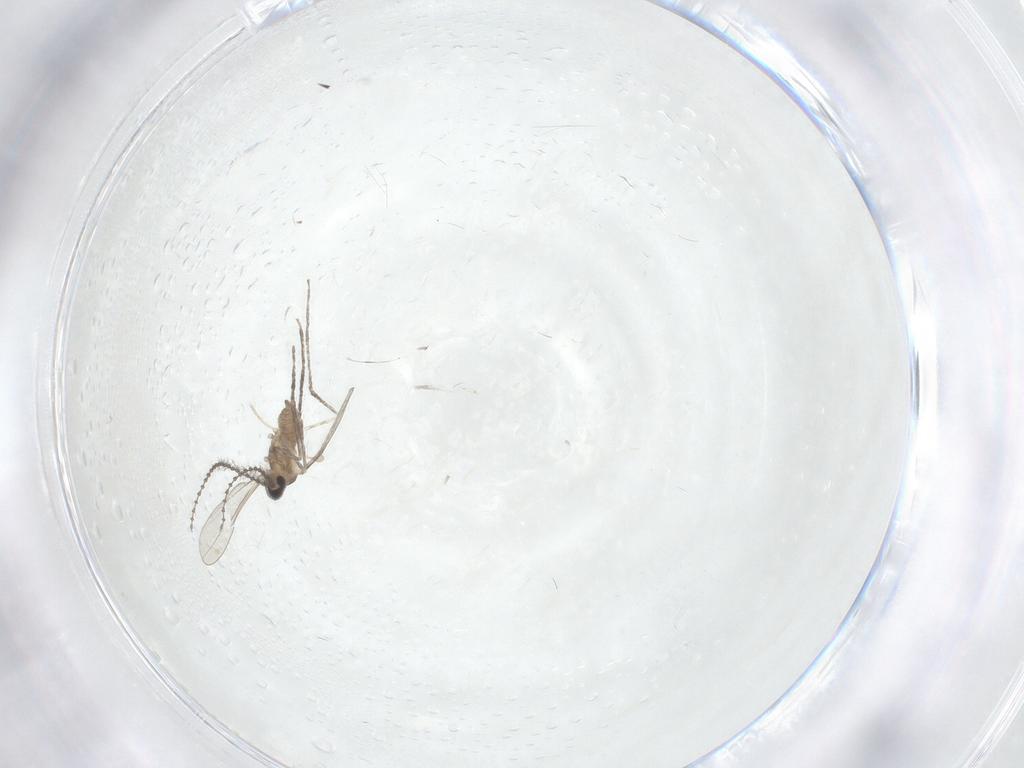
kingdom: Animalia
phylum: Arthropoda
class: Insecta
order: Diptera
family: Cecidomyiidae
